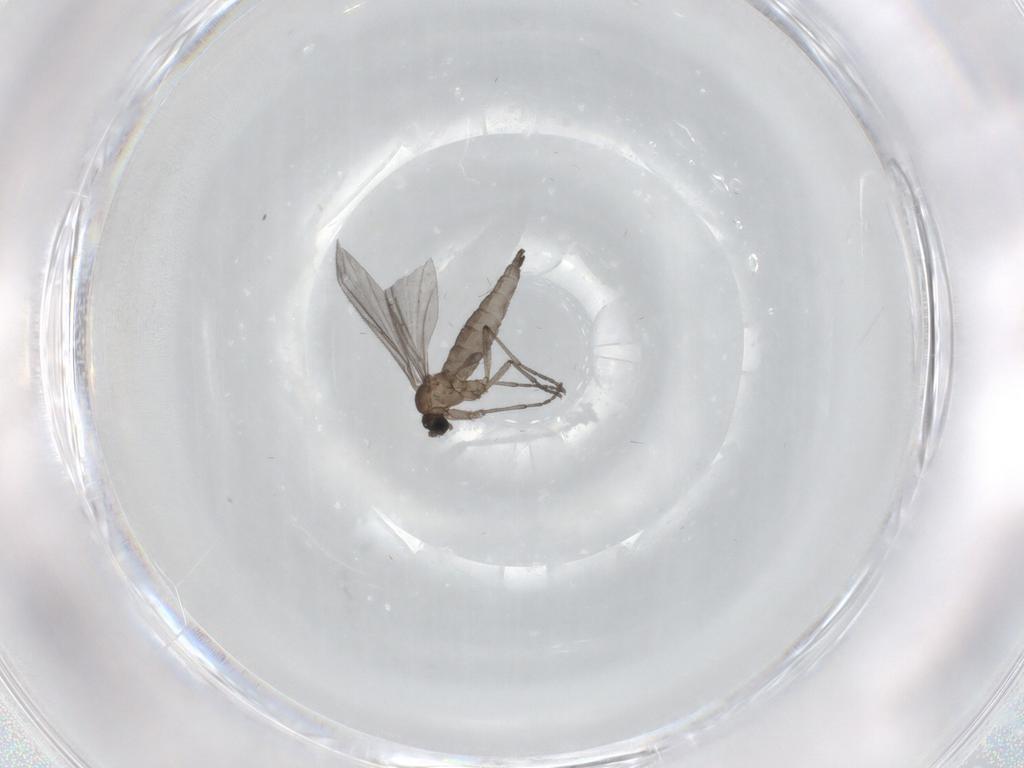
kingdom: Animalia
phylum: Arthropoda
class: Insecta
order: Diptera
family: Sciaridae
